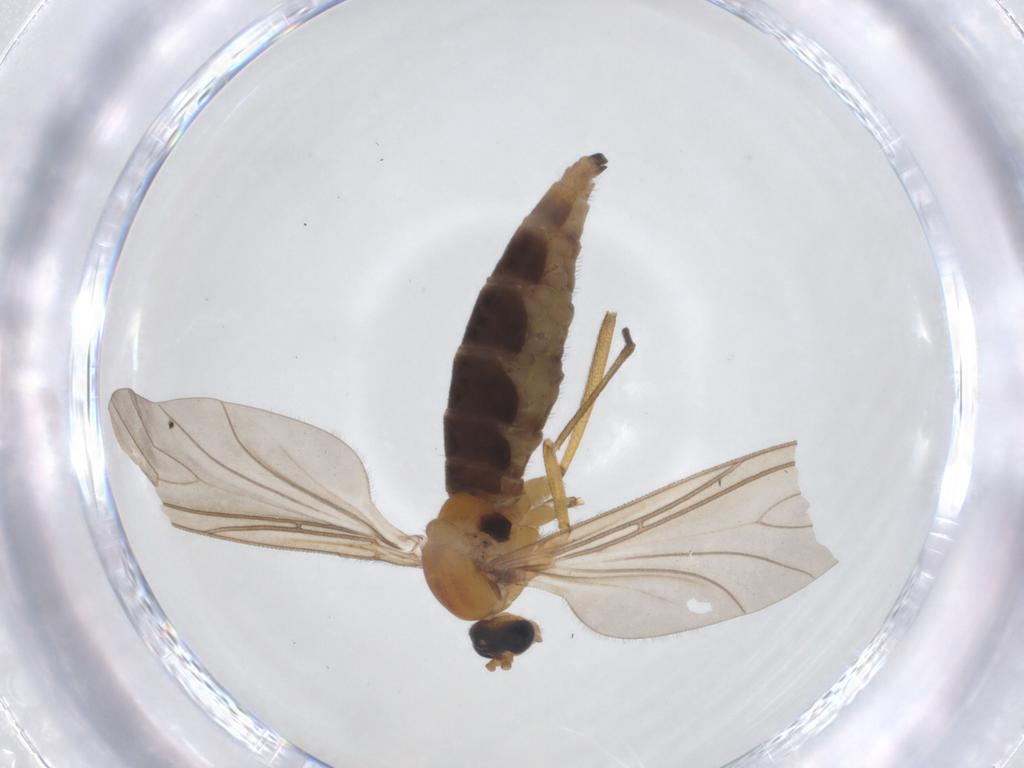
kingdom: Animalia
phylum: Arthropoda
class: Insecta
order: Diptera
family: Sciaridae
